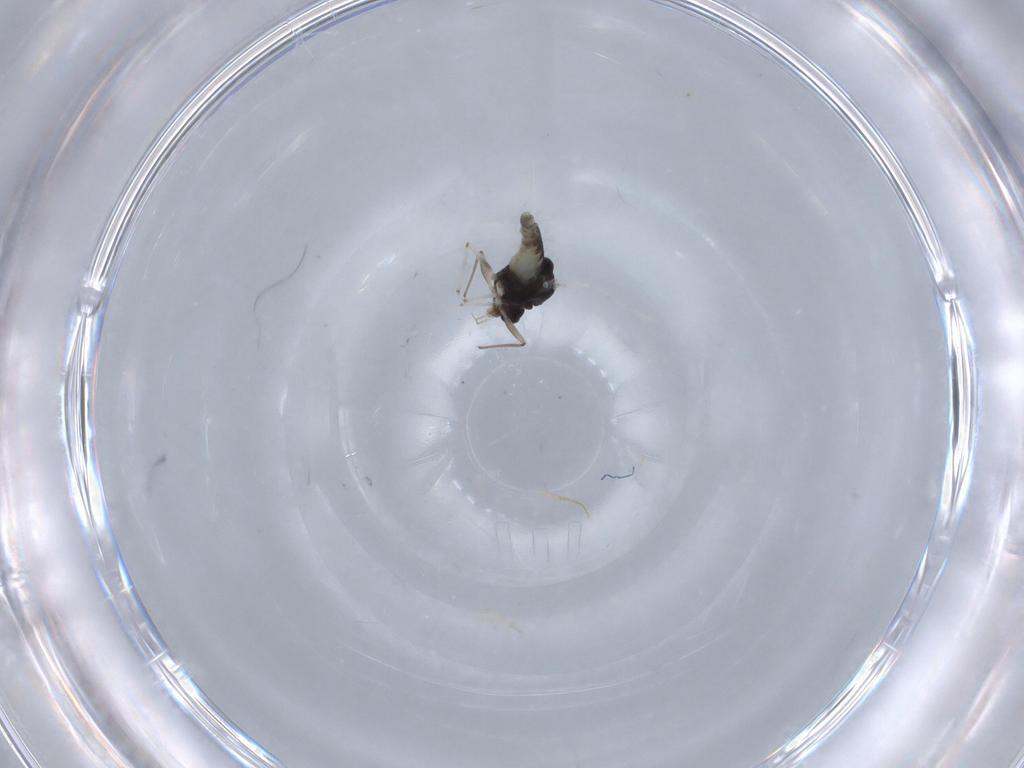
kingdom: Animalia
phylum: Arthropoda
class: Insecta
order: Diptera
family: Chironomidae
